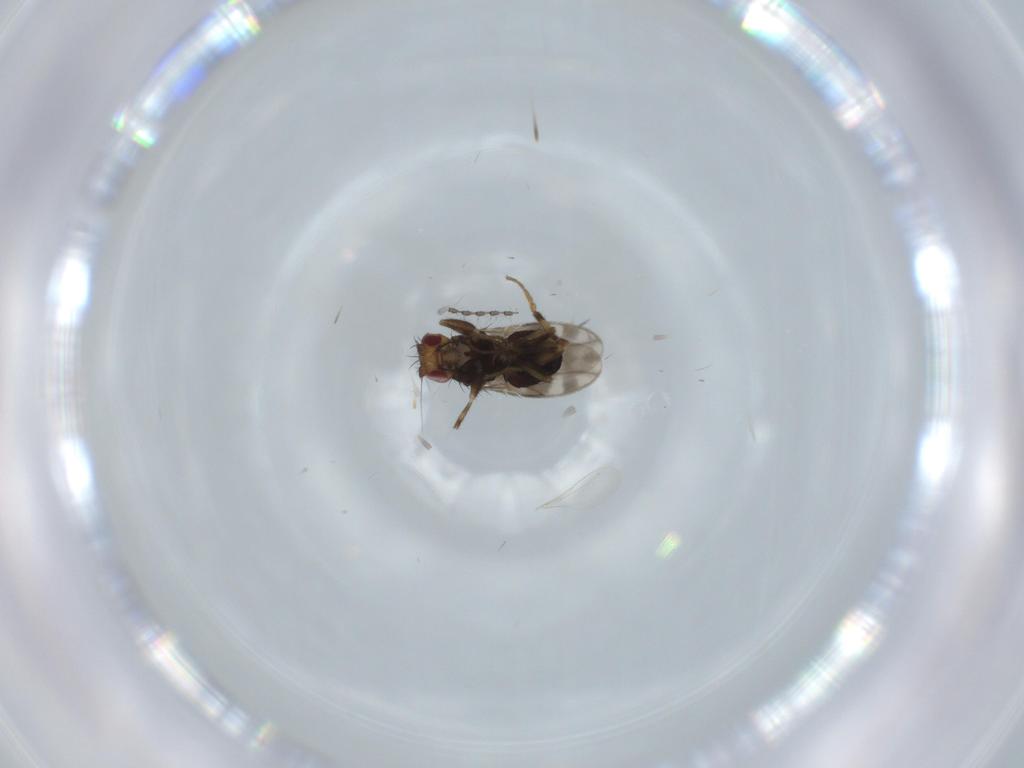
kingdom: Animalia
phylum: Arthropoda
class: Insecta
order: Diptera
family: Sphaeroceridae
